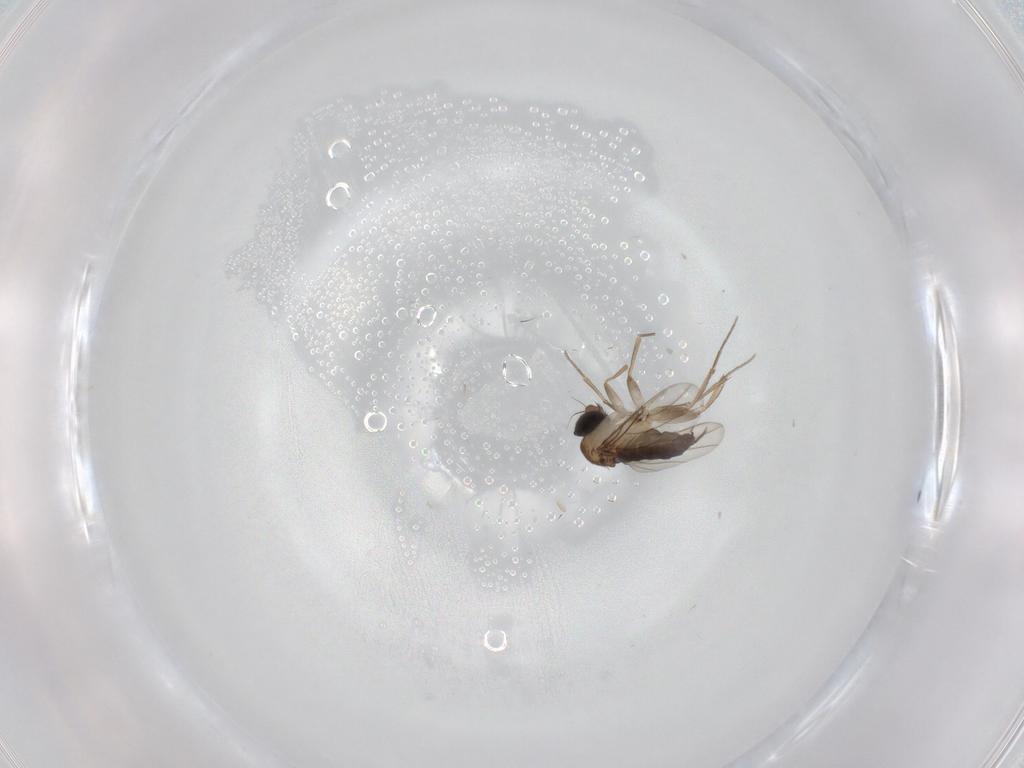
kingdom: Animalia
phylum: Arthropoda
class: Insecta
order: Diptera
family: Phoridae
